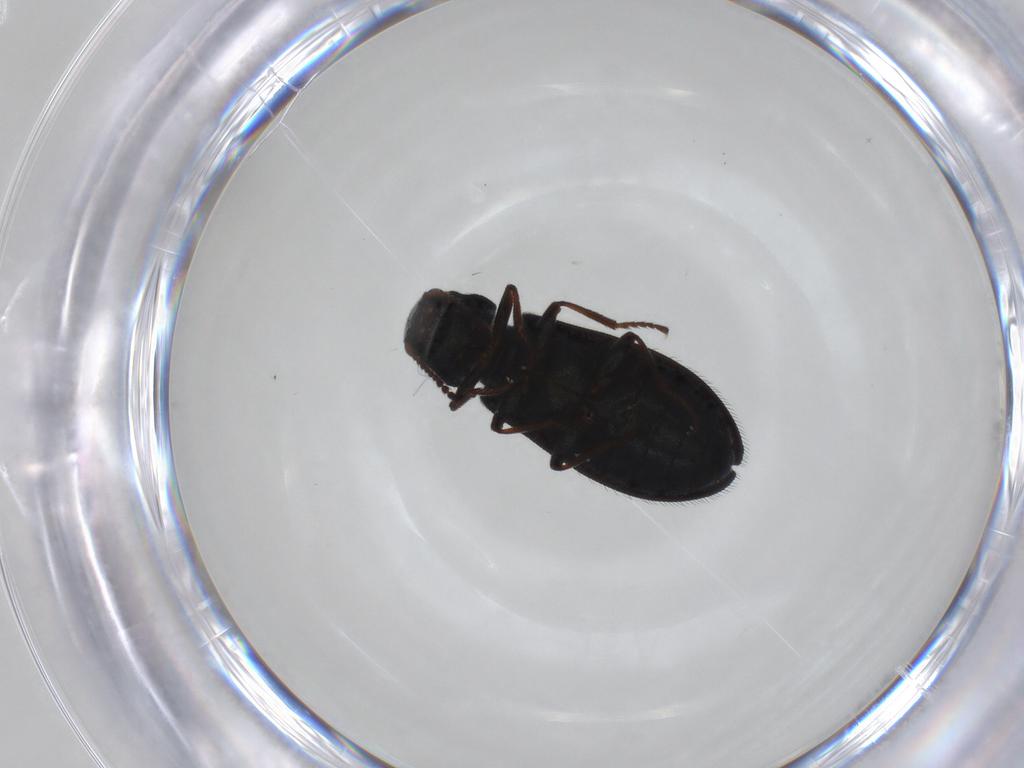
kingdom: Animalia
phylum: Arthropoda
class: Insecta
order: Coleoptera
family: Melyridae
